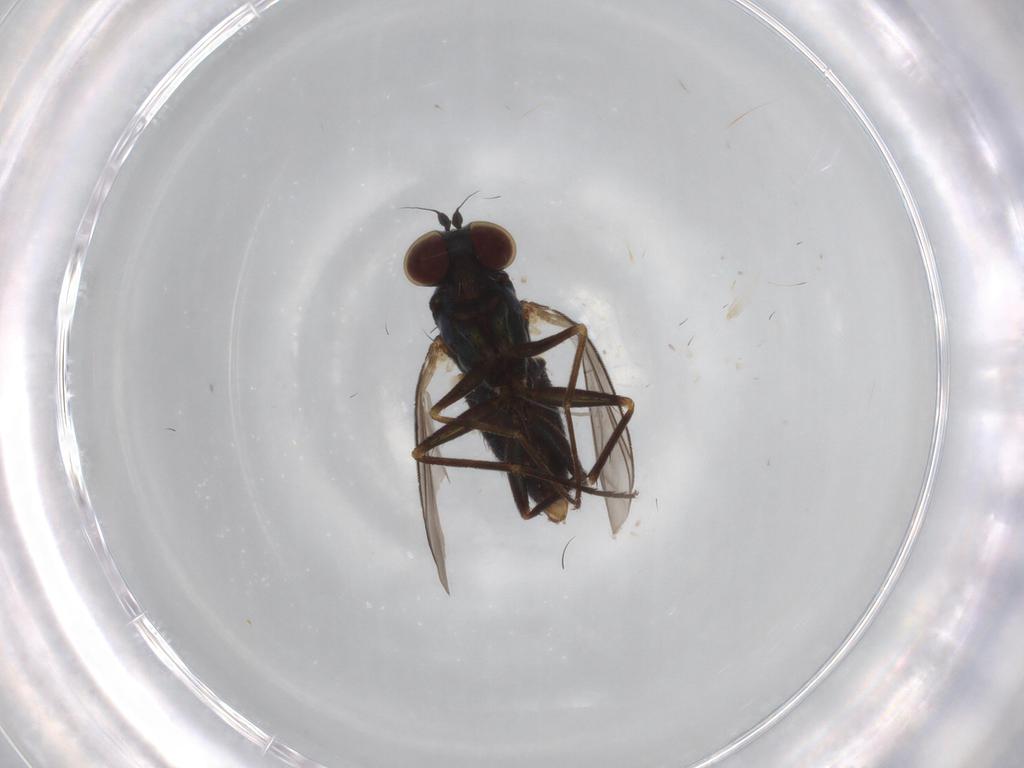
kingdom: Animalia
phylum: Arthropoda
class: Insecta
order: Diptera
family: Dolichopodidae
